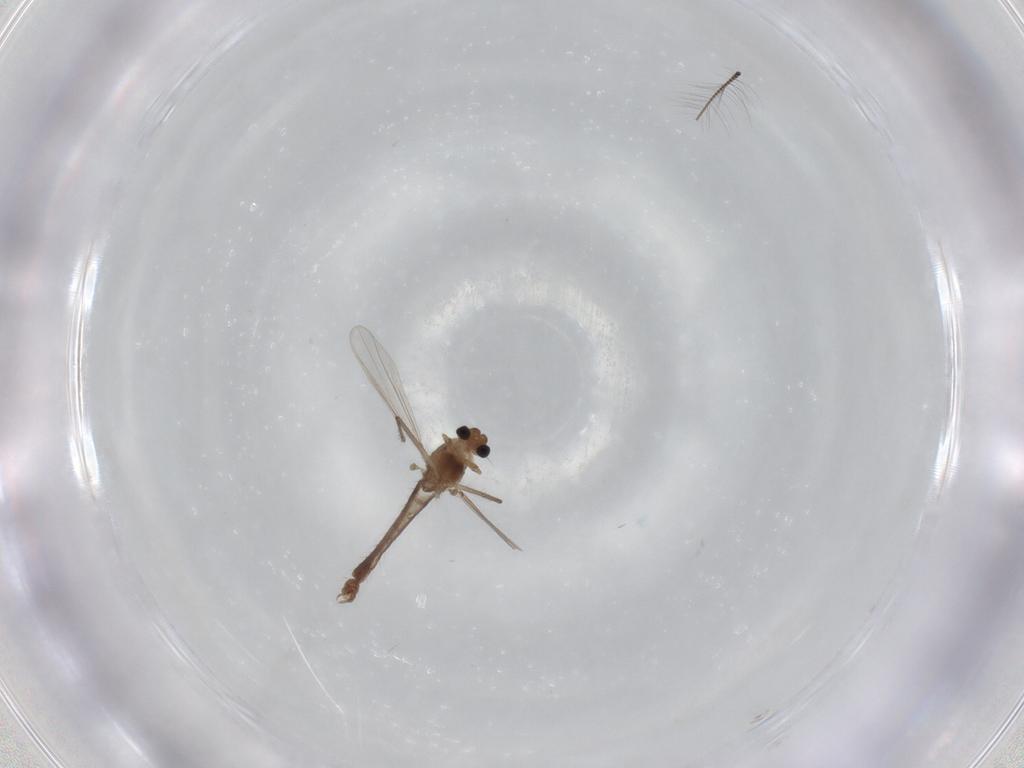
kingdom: Animalia
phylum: Arthropoda
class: Insecta
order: Diptera
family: Chironomidae
